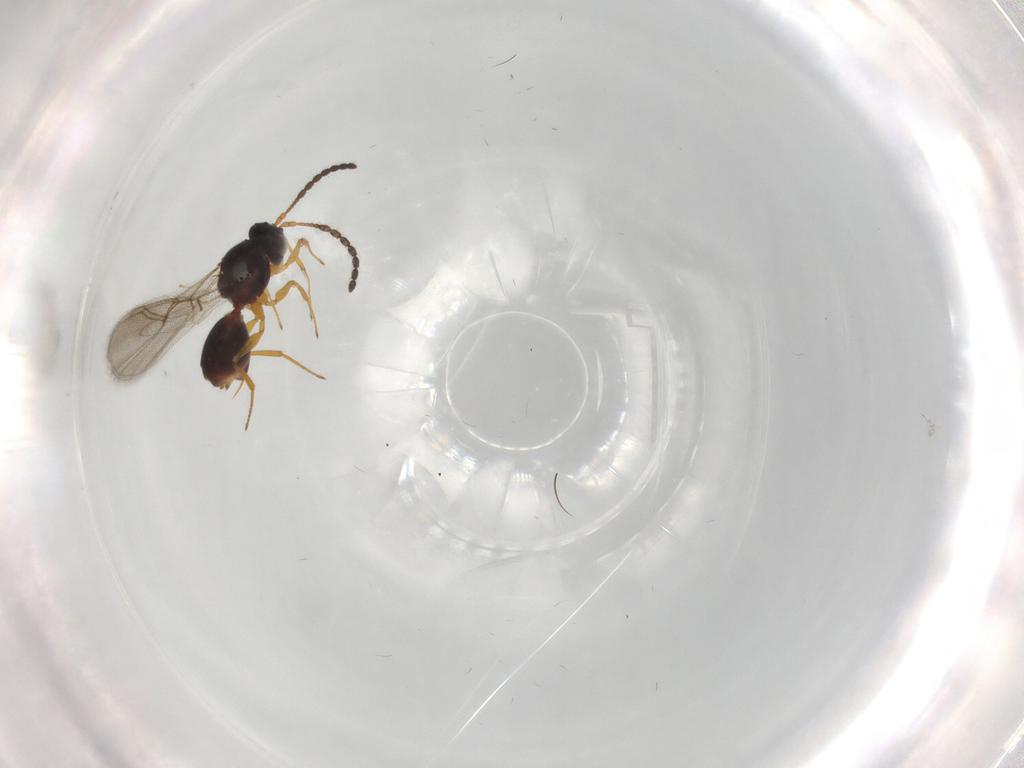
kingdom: Animalia
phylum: Arthropoda
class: Insecta
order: Hymenoptera
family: Figitidae
